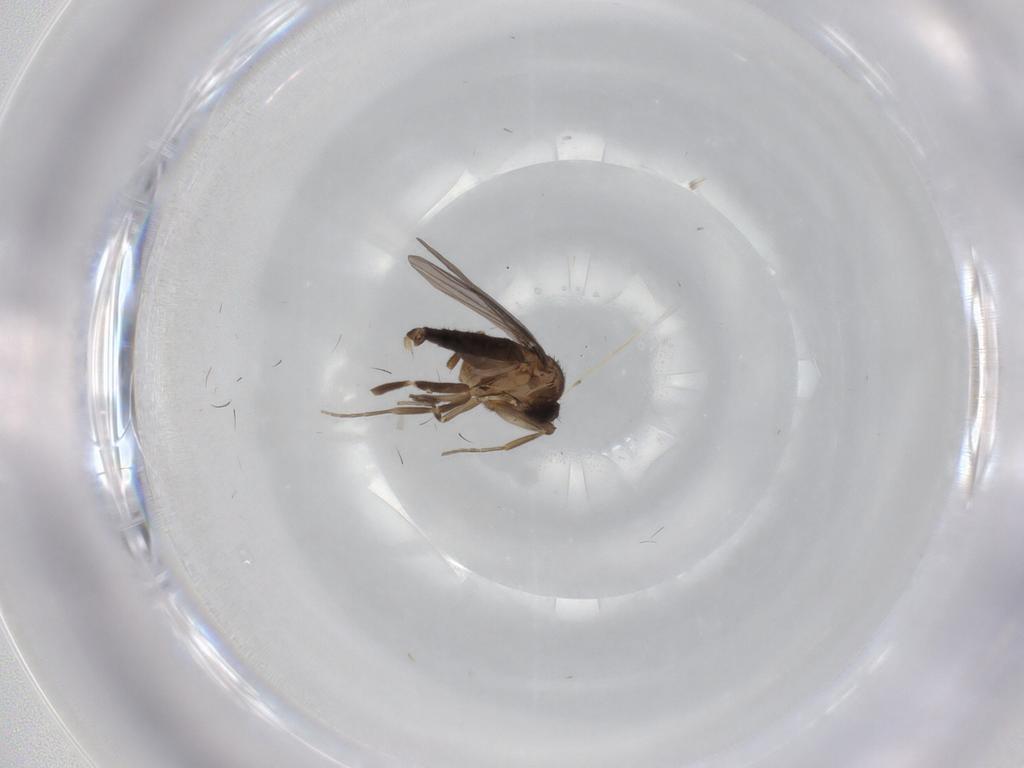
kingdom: Animalia
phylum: Arthropoda
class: Insecta
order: Diptera
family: Phoridae
